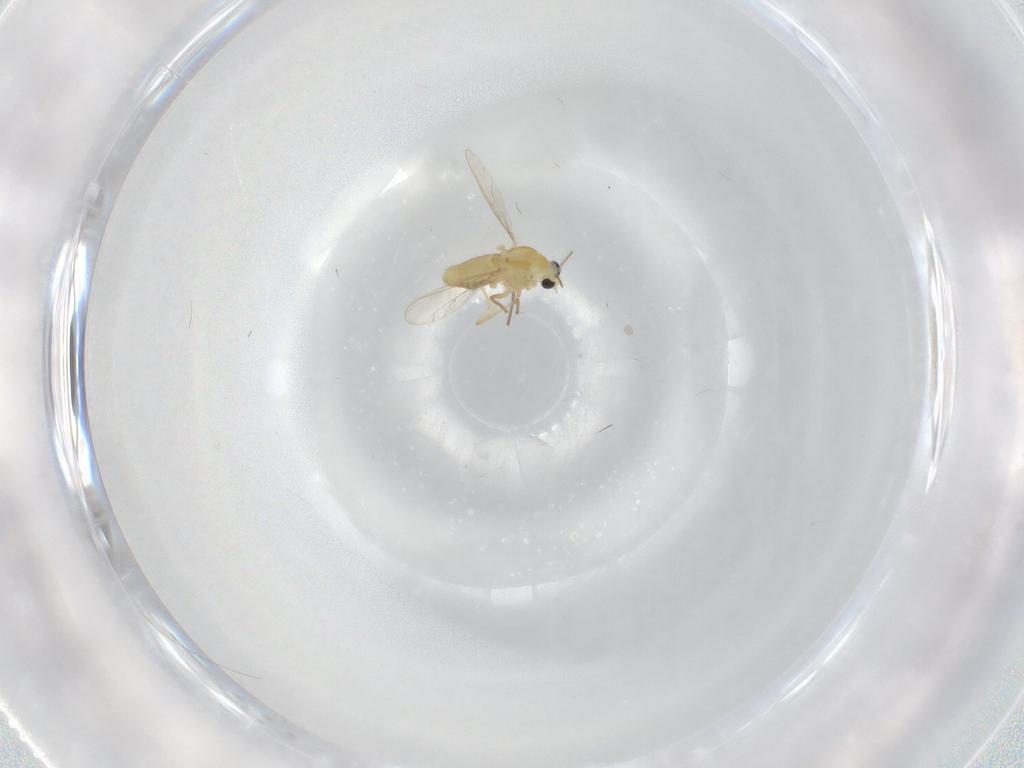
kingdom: Animalia
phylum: Arthropoda
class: Insecta
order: Diptera
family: Chironomidae
